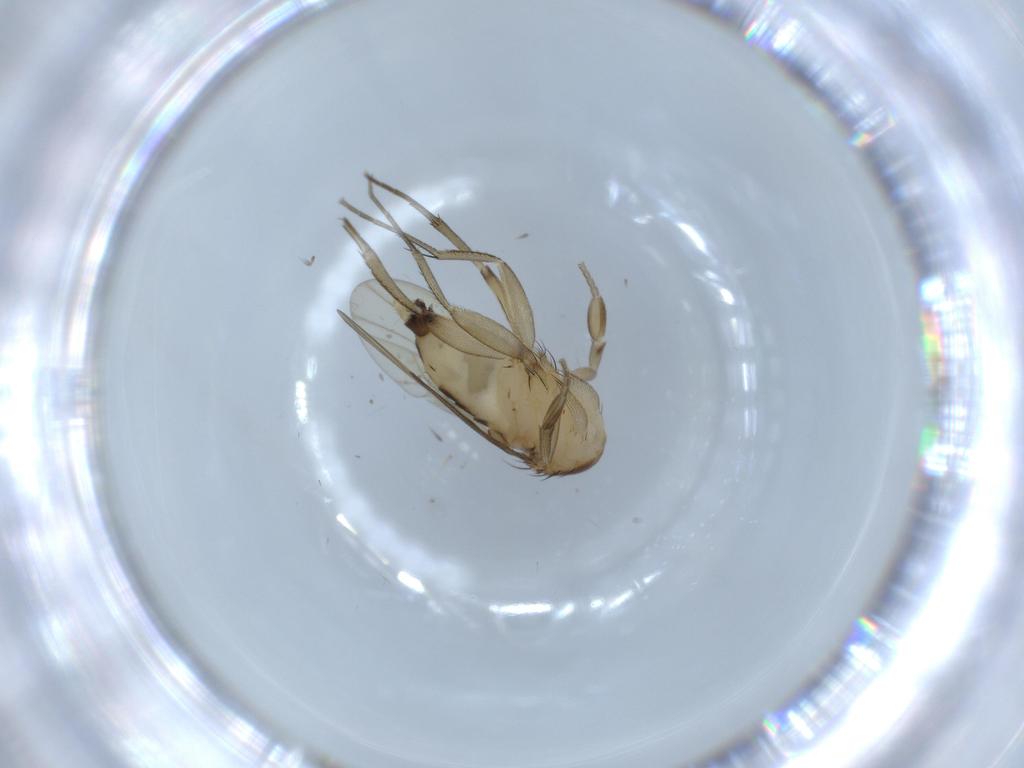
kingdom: Animalia
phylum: Arthropoda
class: Insecta
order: Diptera
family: Phoridae
